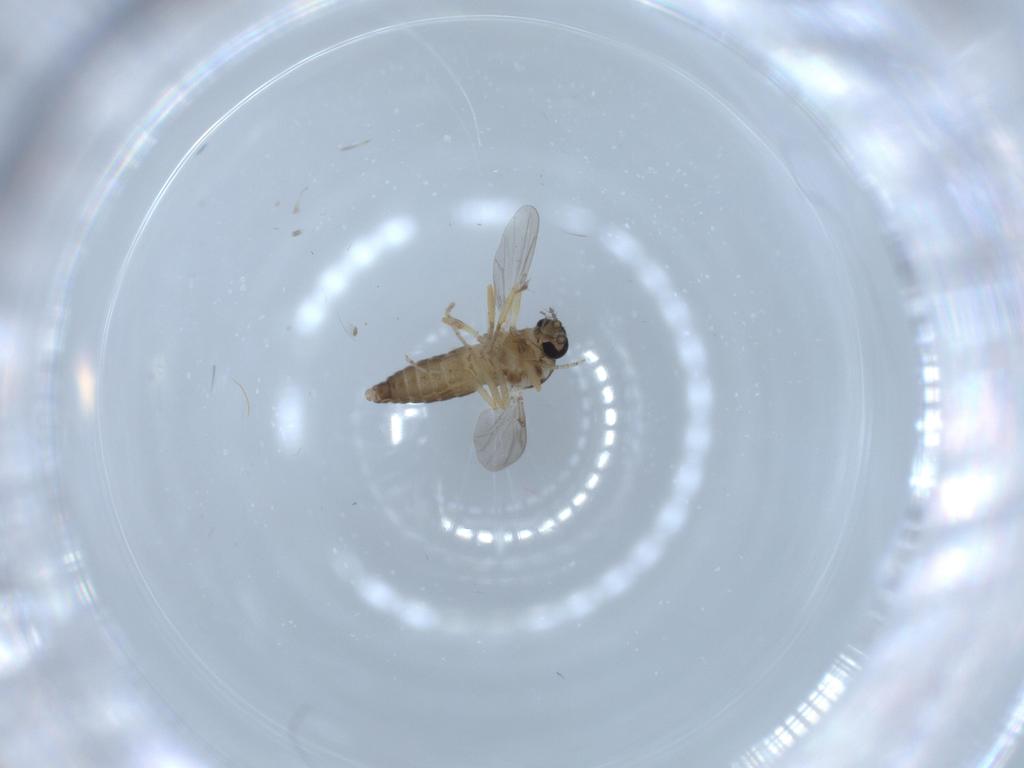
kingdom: Animalia
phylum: Arthropoda
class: Insecta
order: Diptera
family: Ceratopogonidae
